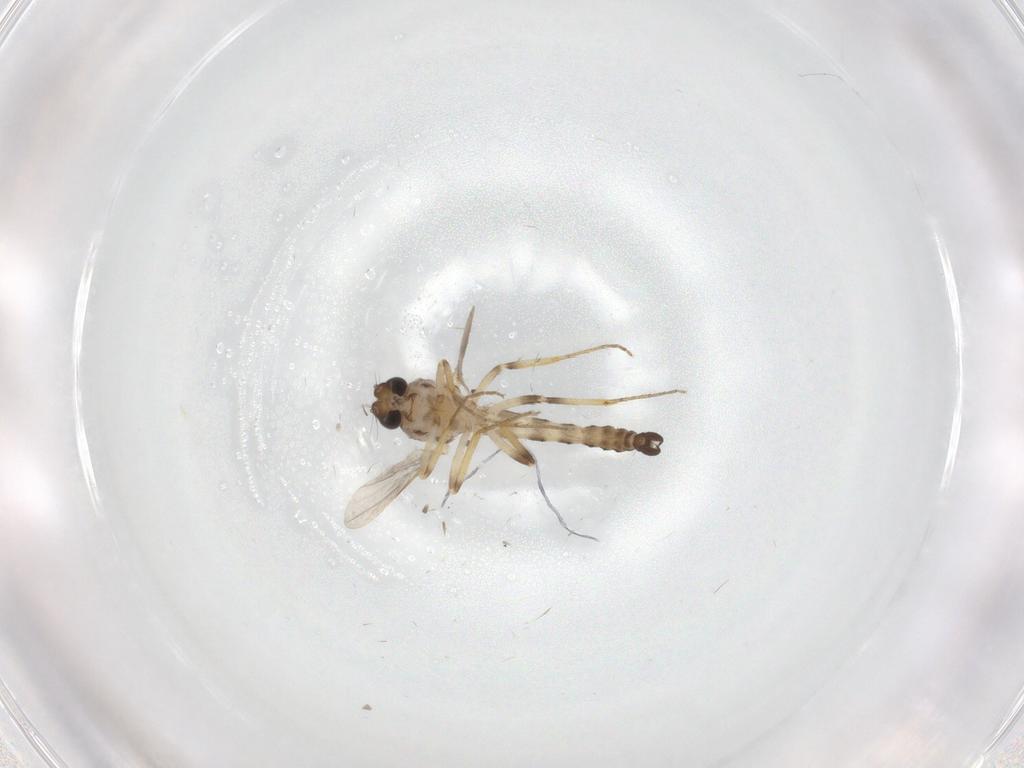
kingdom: Animalia
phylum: Arthropoda
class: Insecta
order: Diptera
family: Ceratopogonidae
